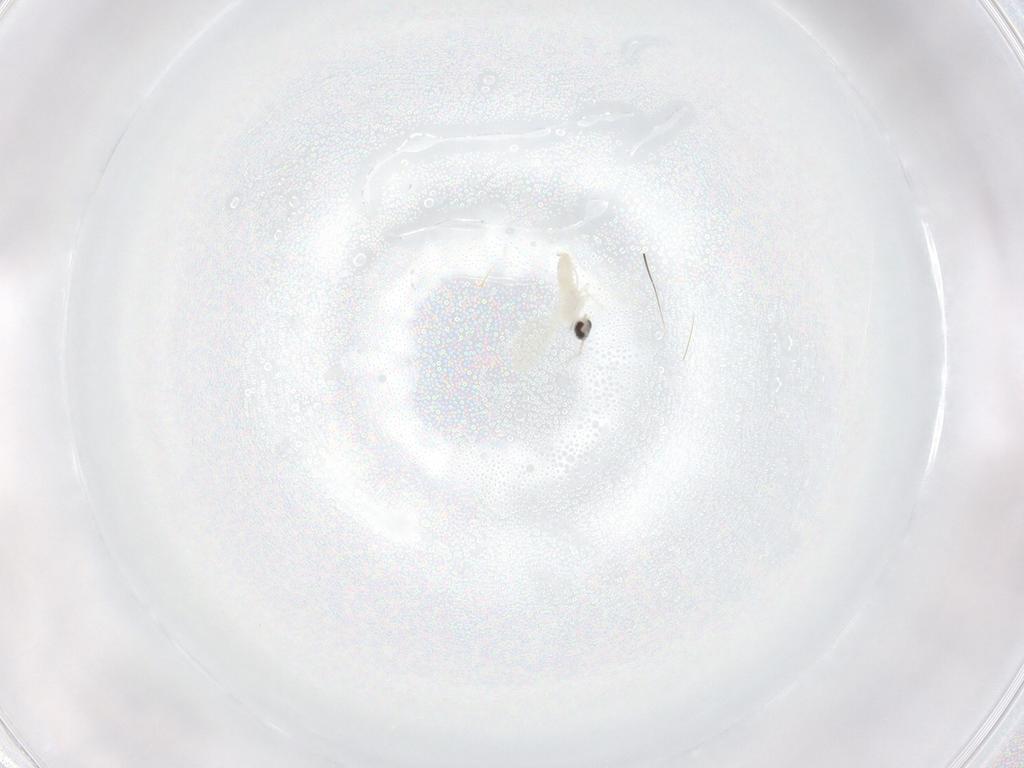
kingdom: Animalia
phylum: Arthropoda
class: Insecta
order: Diptera
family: Cecidomyiidae
